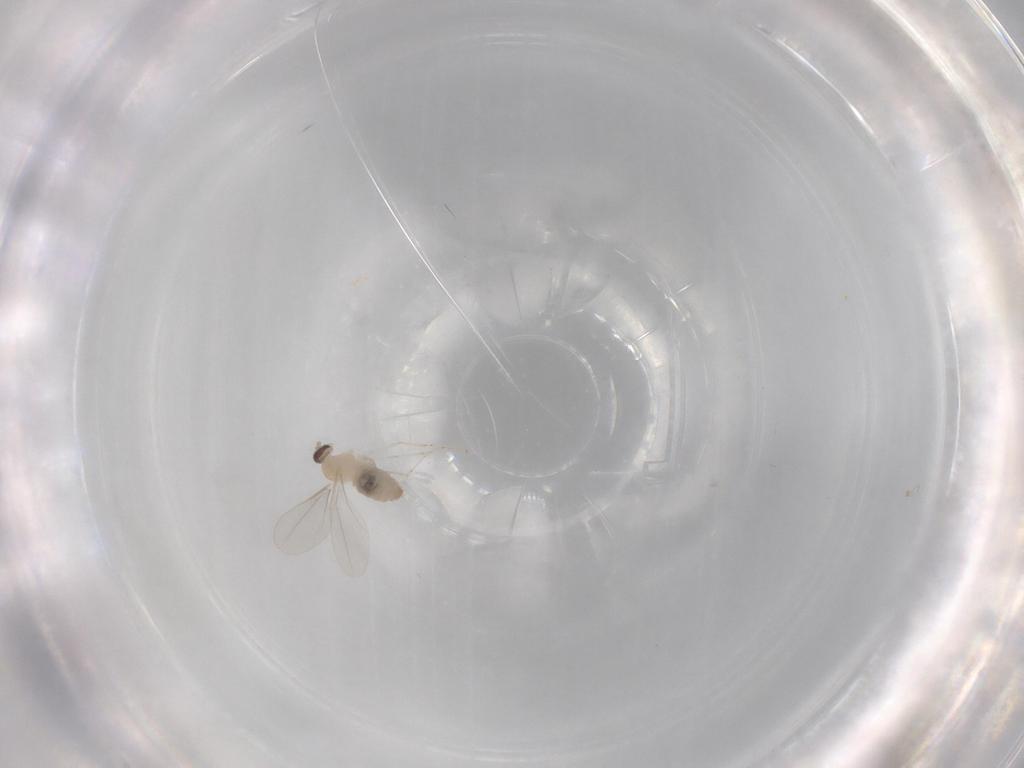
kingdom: Animalia
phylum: Arthropoda
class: Insecta
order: Diptera
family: Cecidomyiidae
